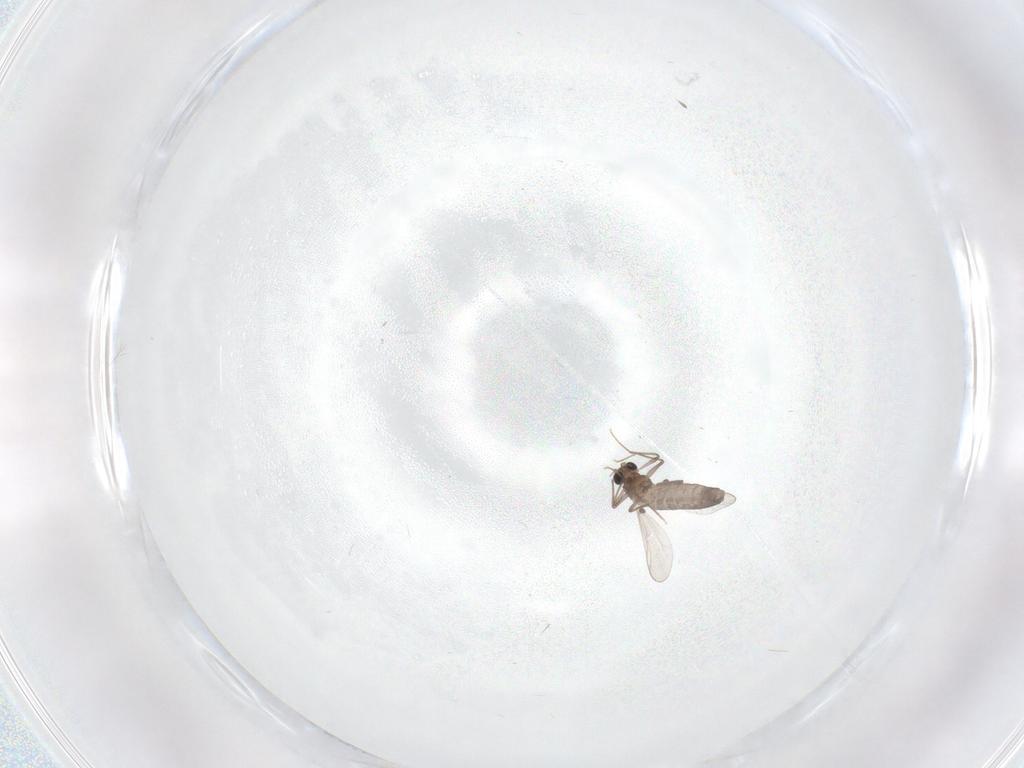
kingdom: Animalia
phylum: Arthropoda
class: Insecta
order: Diptera
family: Chironomidae
